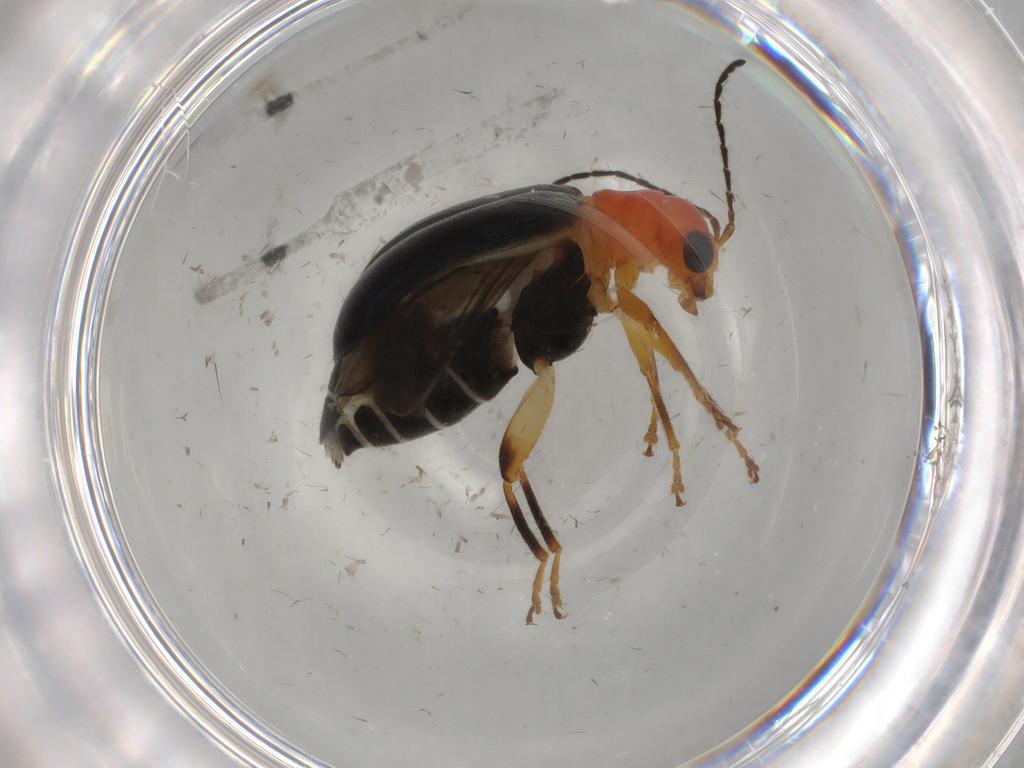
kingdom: Animalia
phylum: Arthropoda
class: Insecta
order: Coleoptera
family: Chrysomelidae
